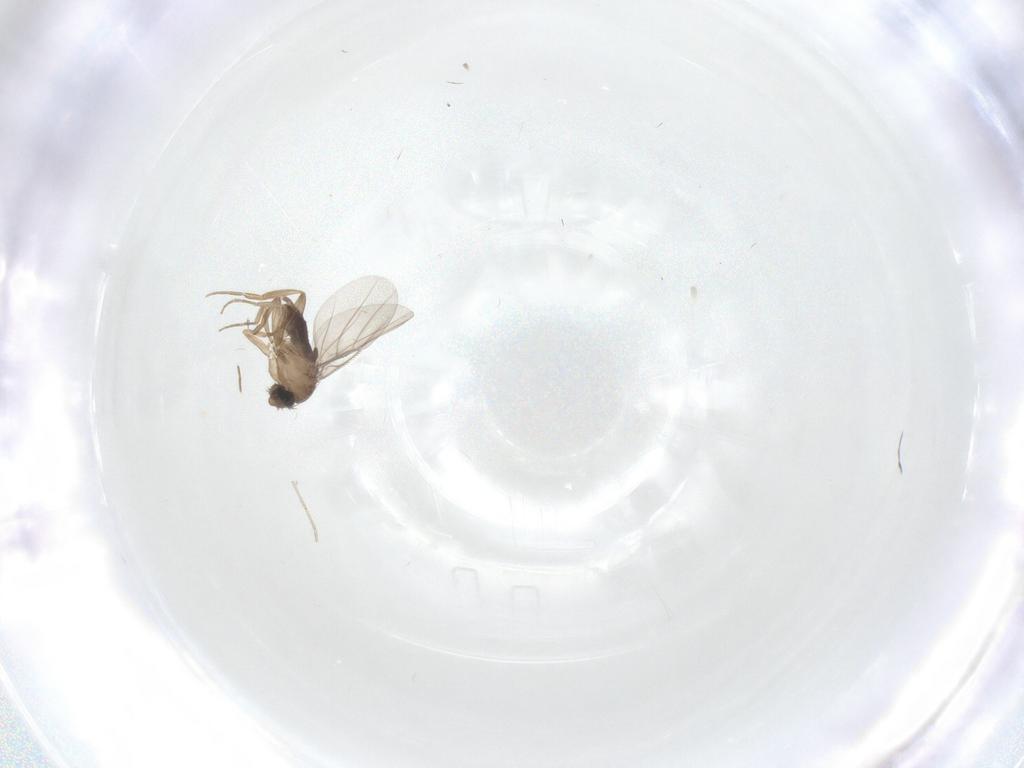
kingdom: Animalia
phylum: Arthropoda
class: Insecta
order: Diptera
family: Cecidomyiidae
